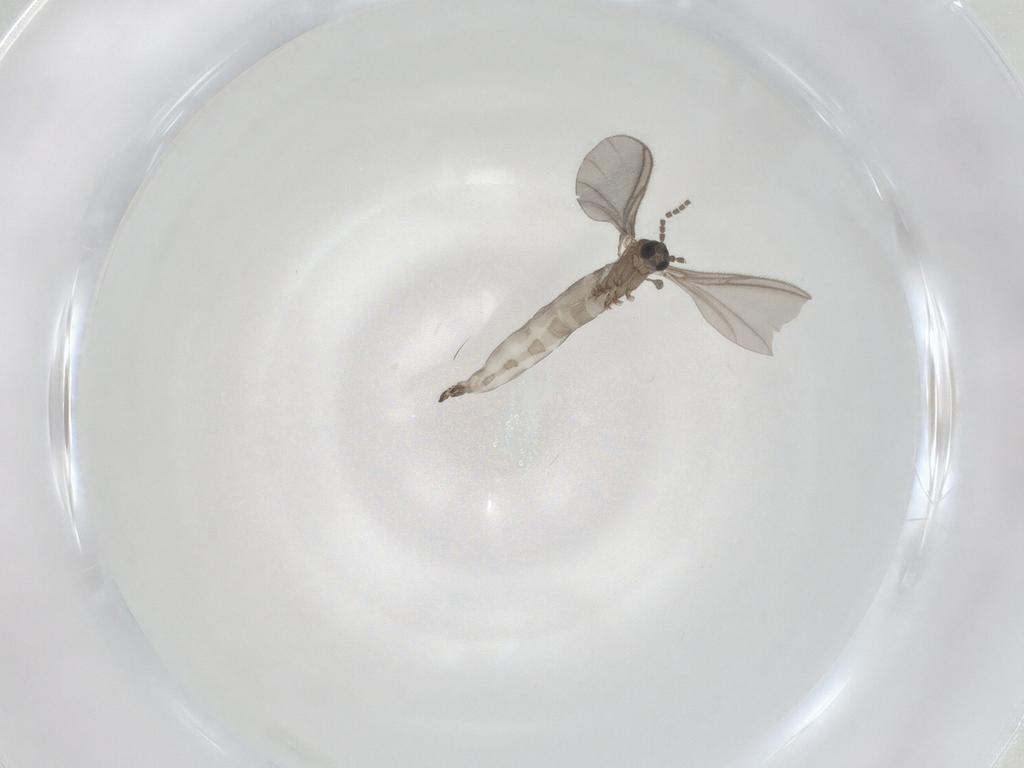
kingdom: Animalia
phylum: Arthropoda
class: Insecta
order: Diptera
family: Sciaridae
